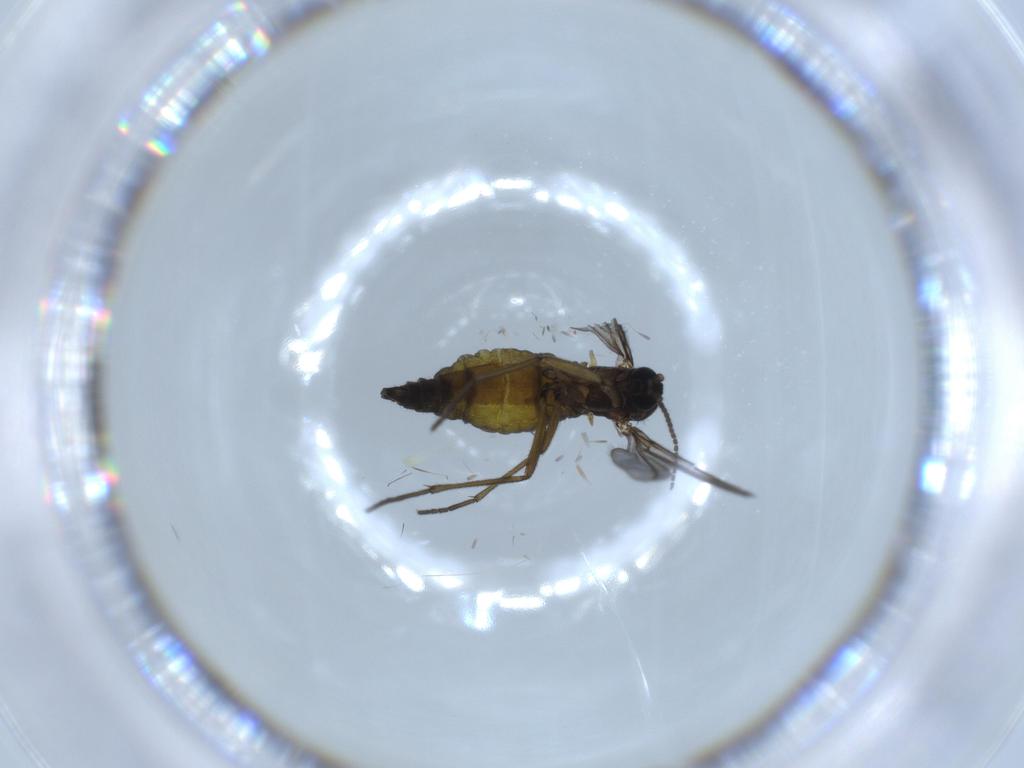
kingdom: Animalia
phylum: Arthropoda
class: Insecta
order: Diptera
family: Sciaridae
